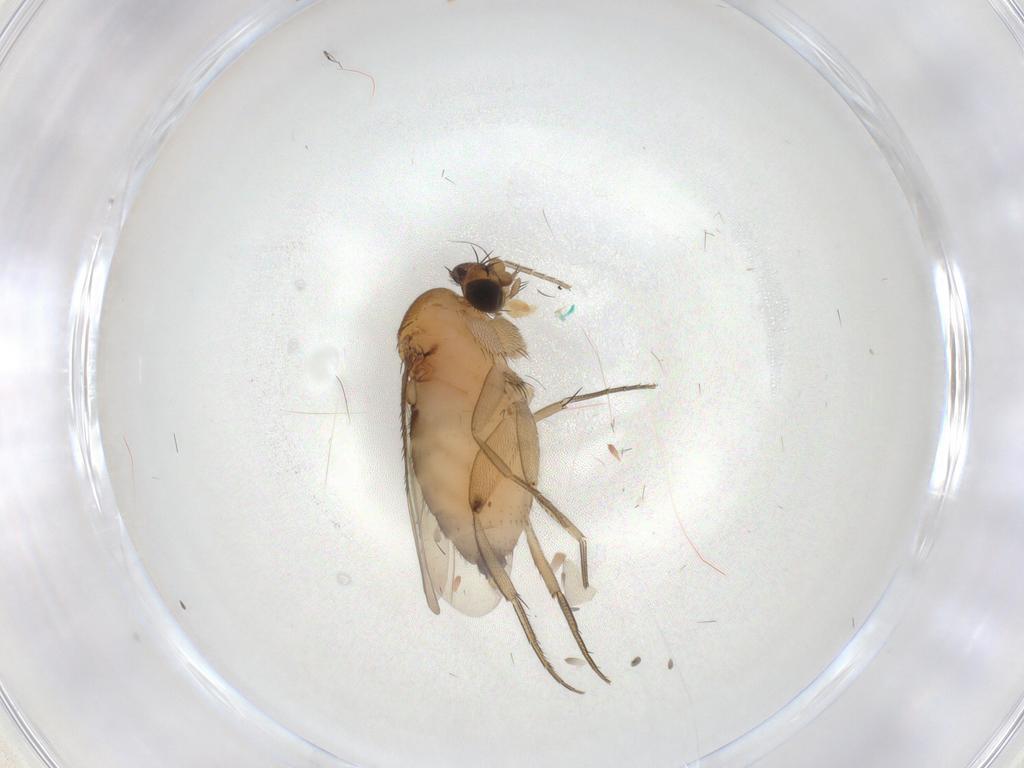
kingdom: Animalia
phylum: Arthropoda
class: Insecta
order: Diptera
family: Phoridae
